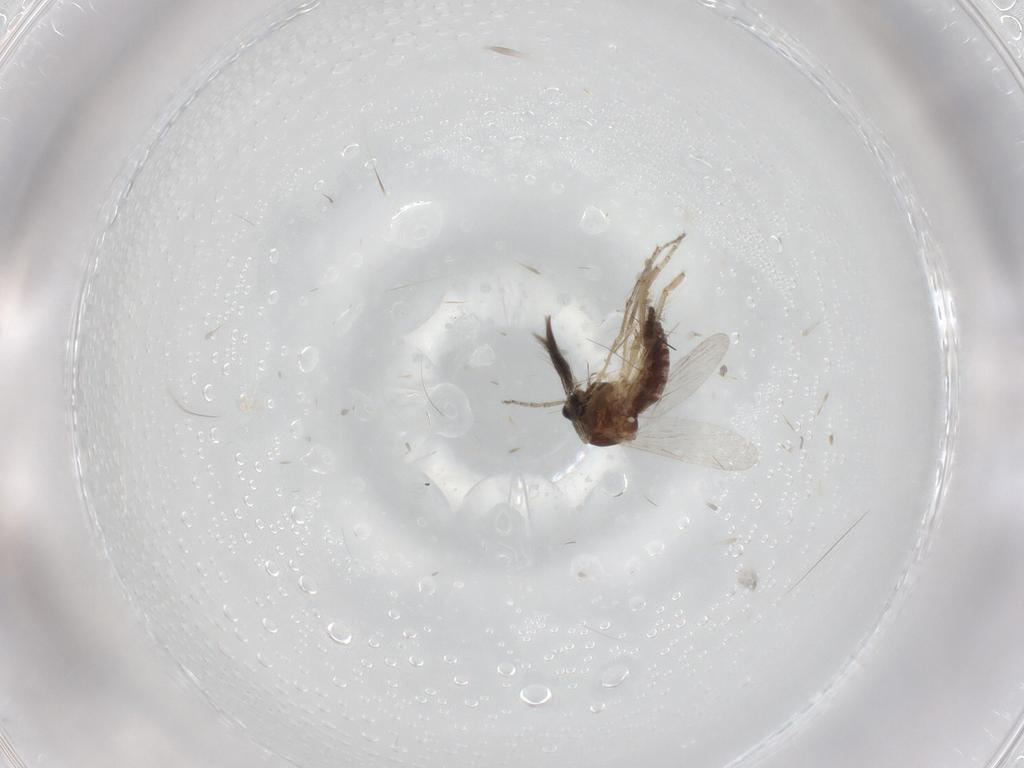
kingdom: Animalia
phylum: Arthropoda
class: Insecta
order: Diptera
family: Ceratopogonidae
